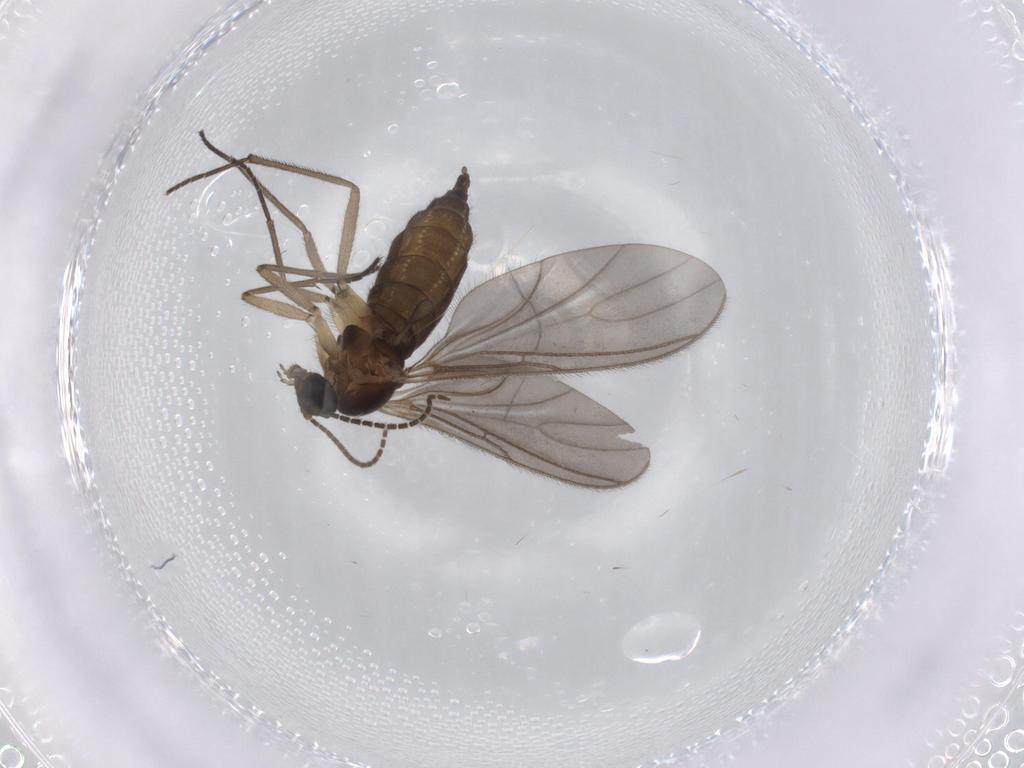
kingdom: Animalia
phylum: Arthropoda
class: Insecta
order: Diptera
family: Sciaridae
